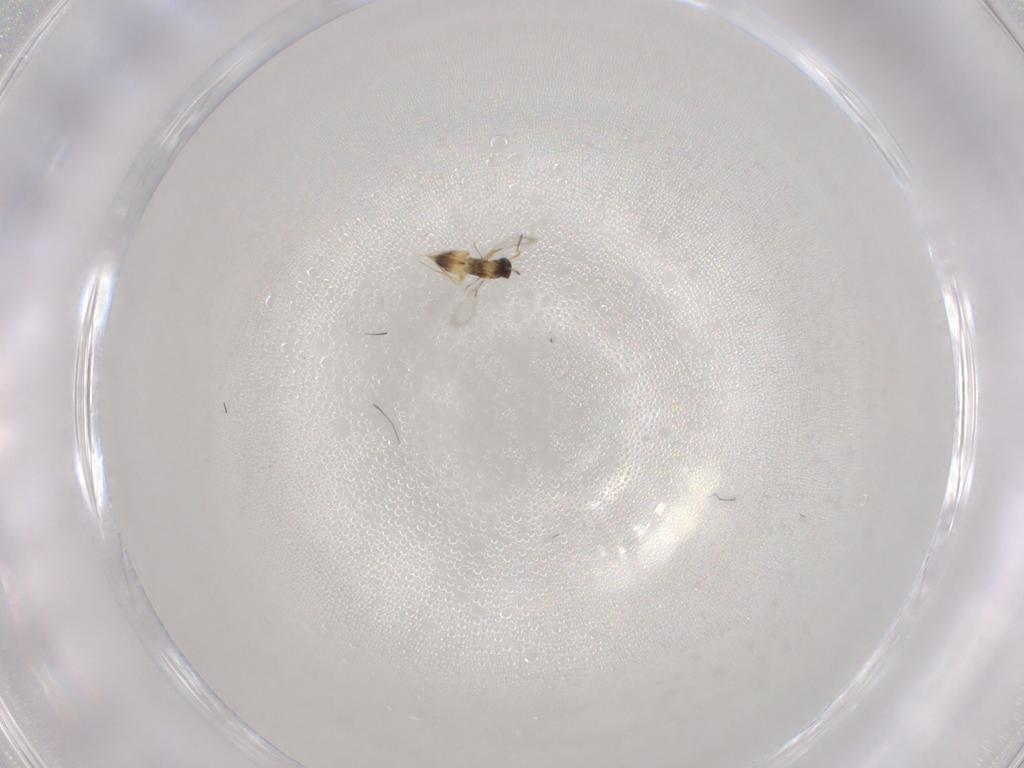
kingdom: Animalia
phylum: Arthropoda
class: Insecta
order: Hymenoptera
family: Mymaridae
